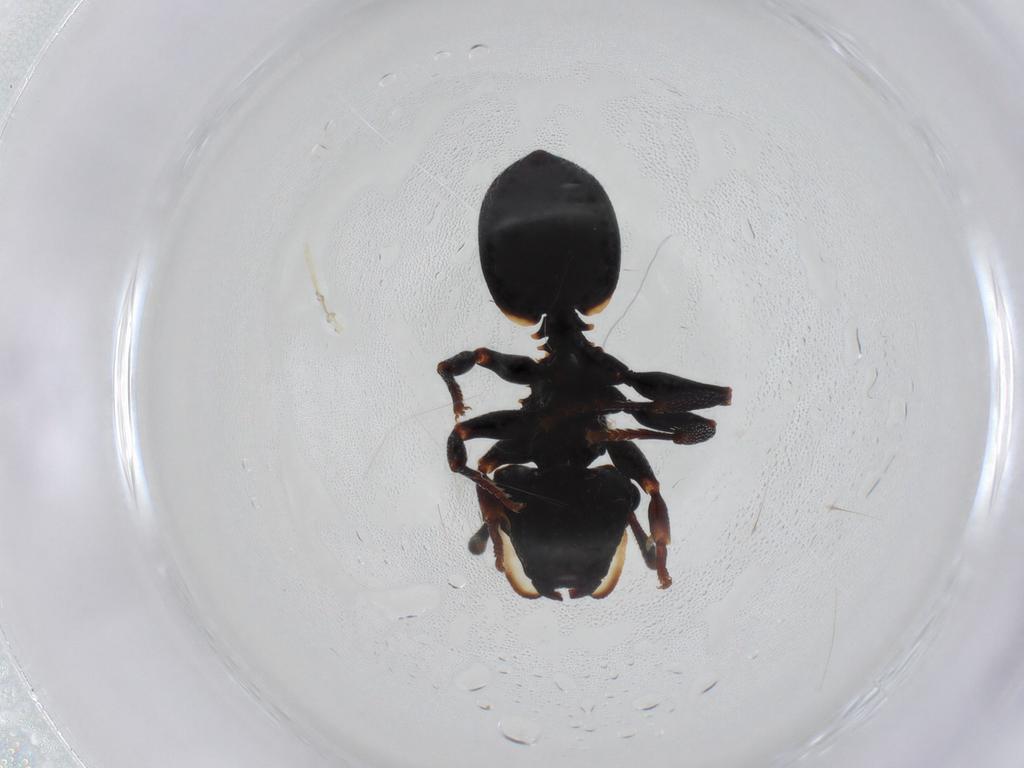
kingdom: Animalia
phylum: Arthropoda
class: Insecta
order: Hymenoptera
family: Formicidae
